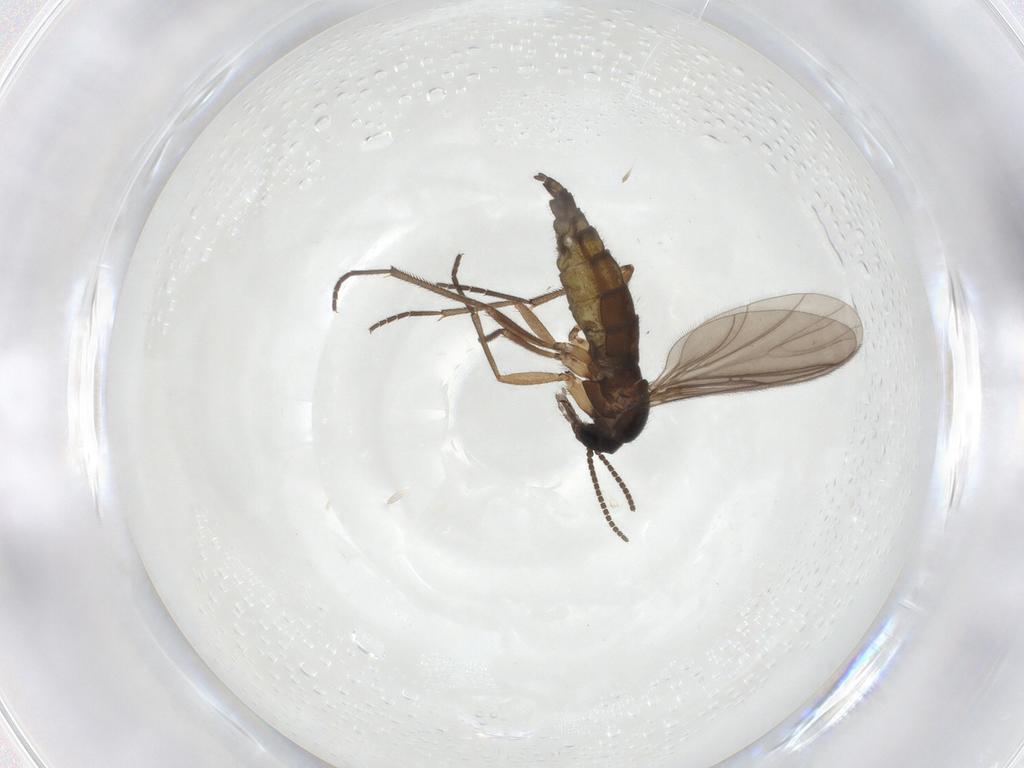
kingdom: Animalia
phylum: Arthropoda
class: Insecta
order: Diptera
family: Sciaridae
